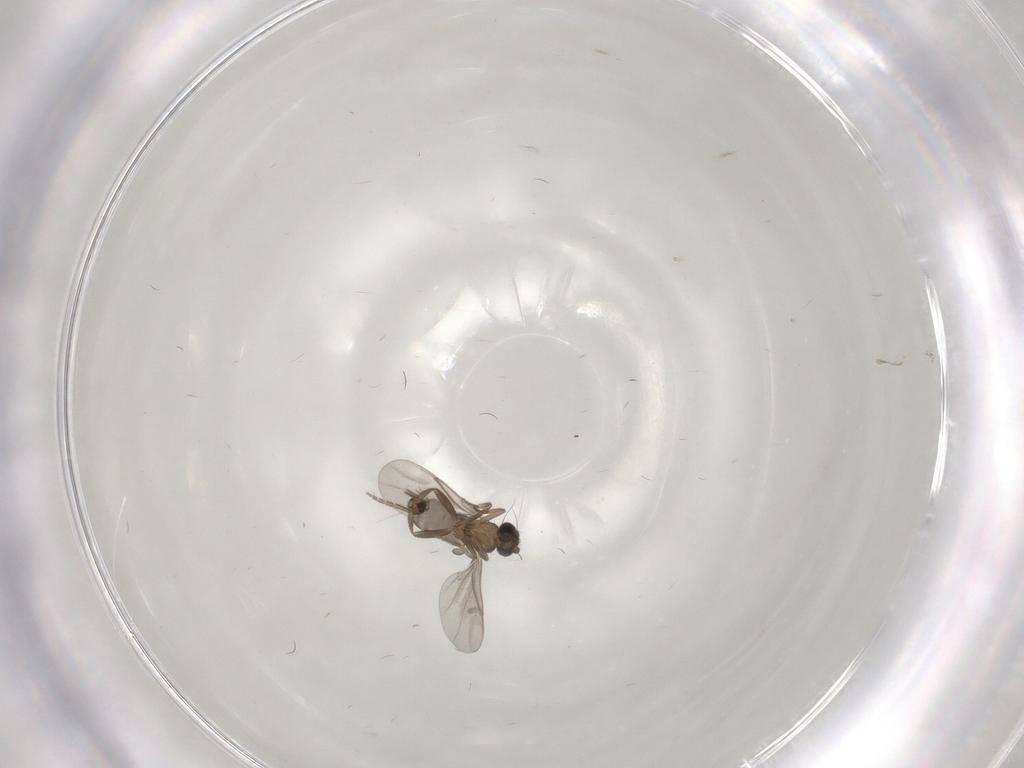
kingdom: Animalia
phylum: Arthropoda
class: Insecta
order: Diptera
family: Cecidomyiidae
